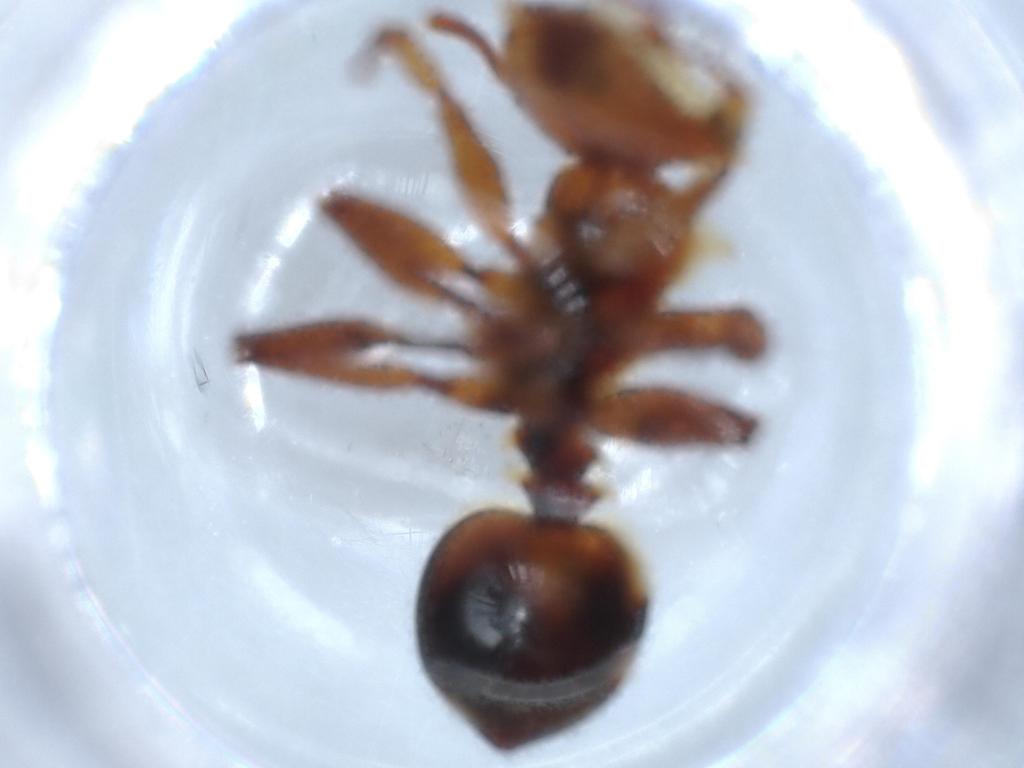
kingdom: Animalia
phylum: Arthropoda
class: Insecta
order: Hymenoptera
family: Formicidae
